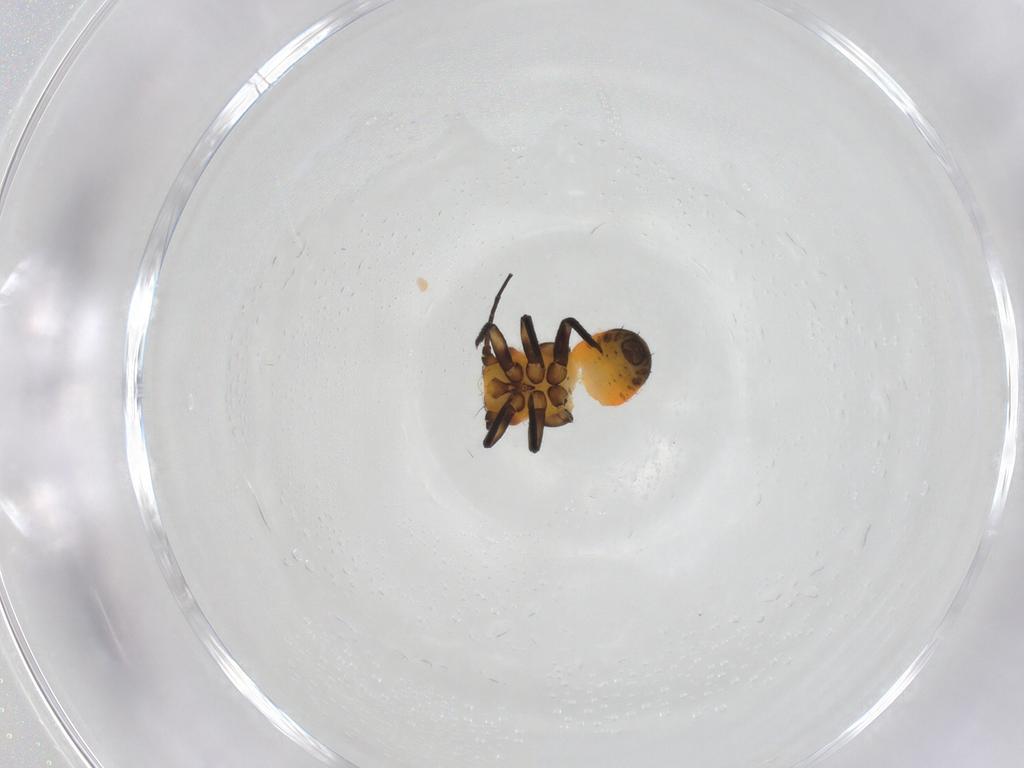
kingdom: Animalia
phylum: Arthropoda
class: Insecta
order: Hemiptera
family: Psyllidae
